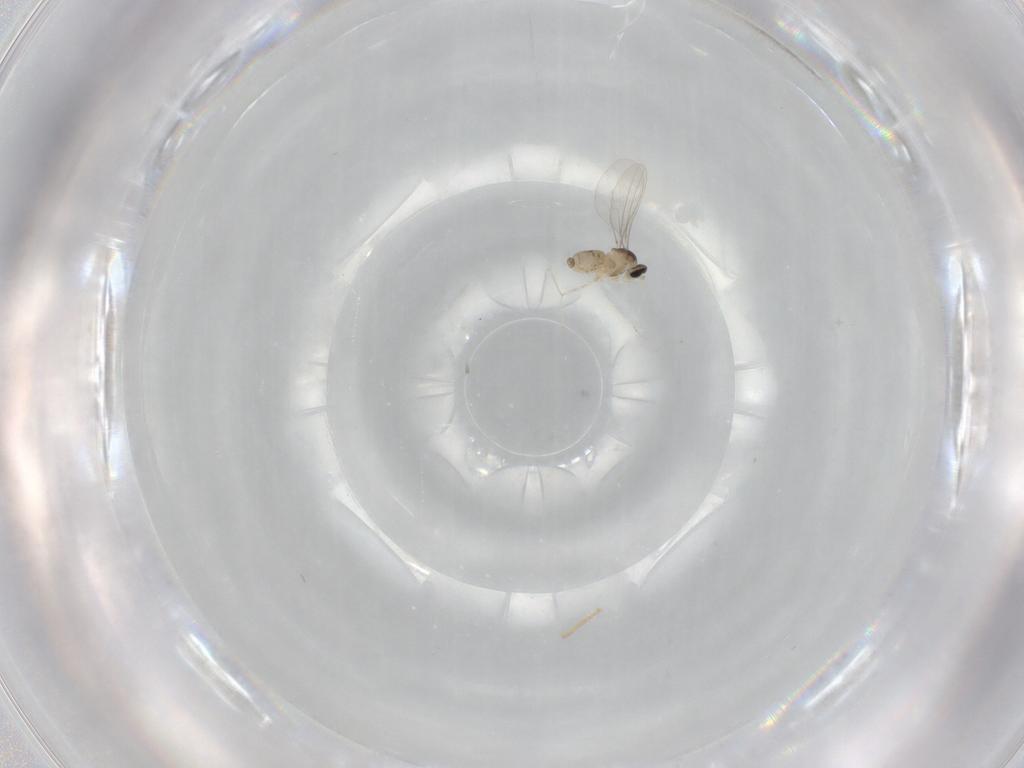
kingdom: Animalia
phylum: Arthropoda
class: Insecta
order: Diptera
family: Cecidomyiidae
